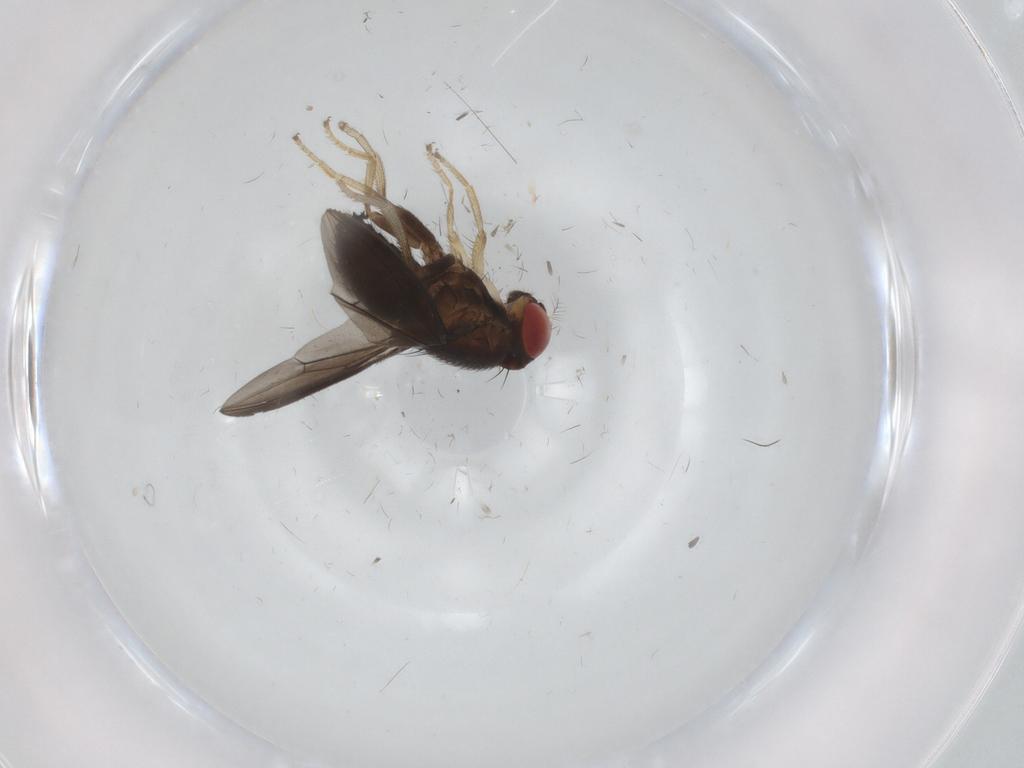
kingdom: Animalia
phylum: Arthropoda
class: Insecta
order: Diptera
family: Drosophilidae
